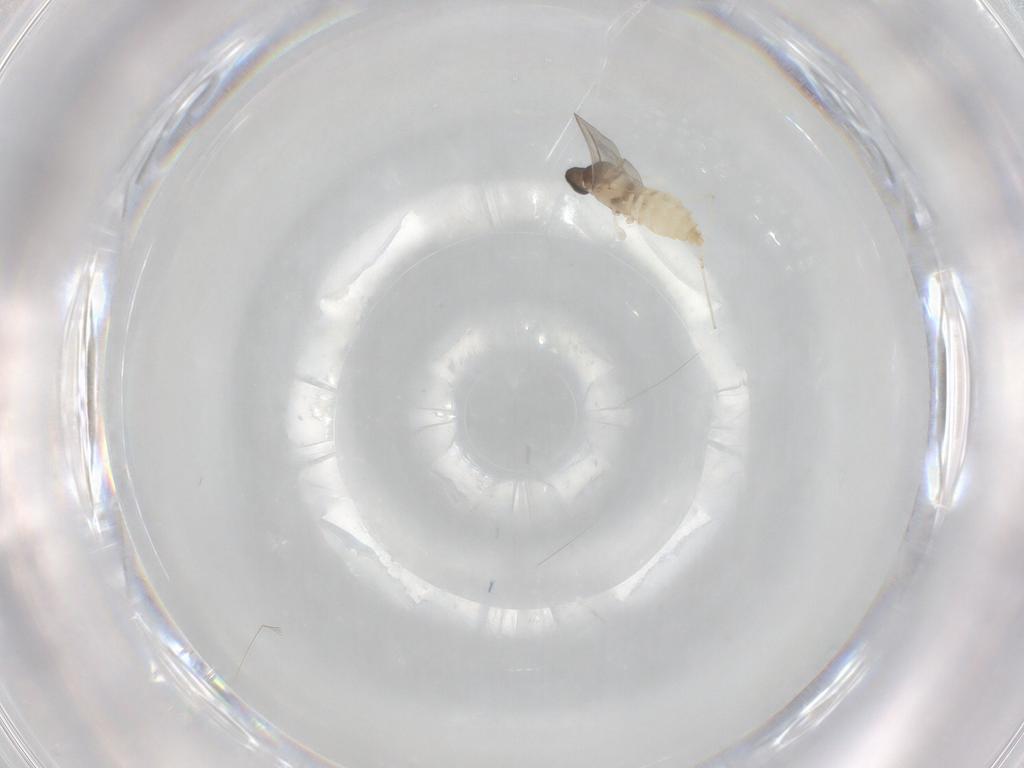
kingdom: Animalia
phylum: Arthropoda
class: Insecta
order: Diptera
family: Cecidomyiidae
